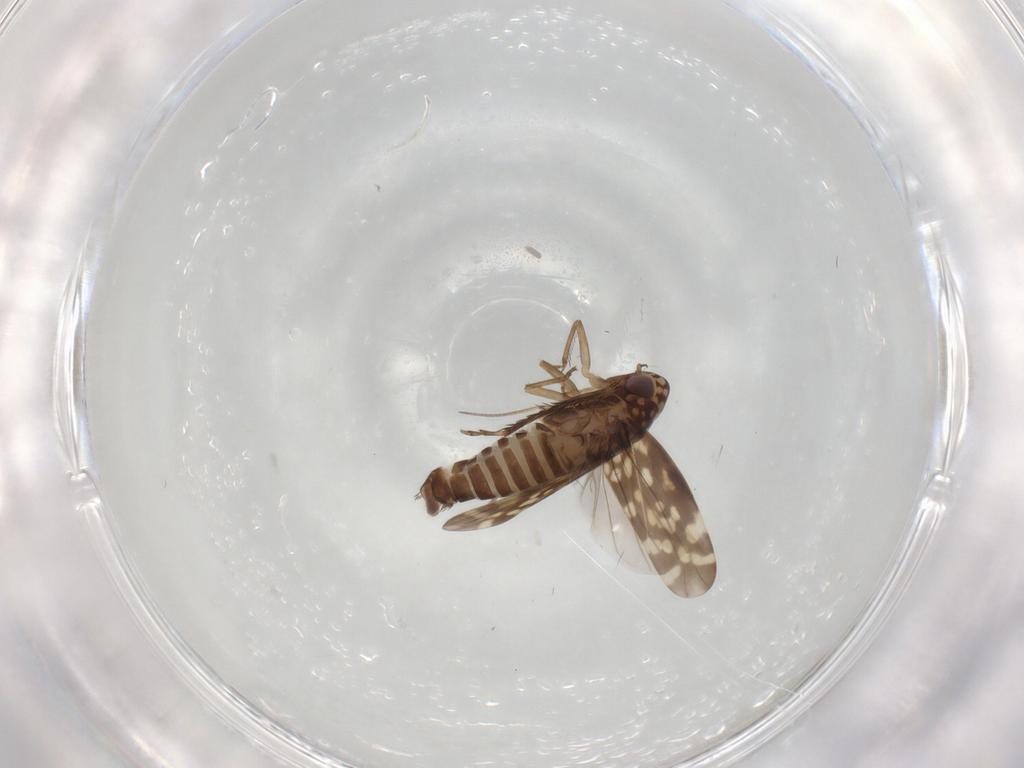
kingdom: Animalia
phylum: Arthropoda
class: Insecta
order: Hemiptera
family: Cicadellidae
